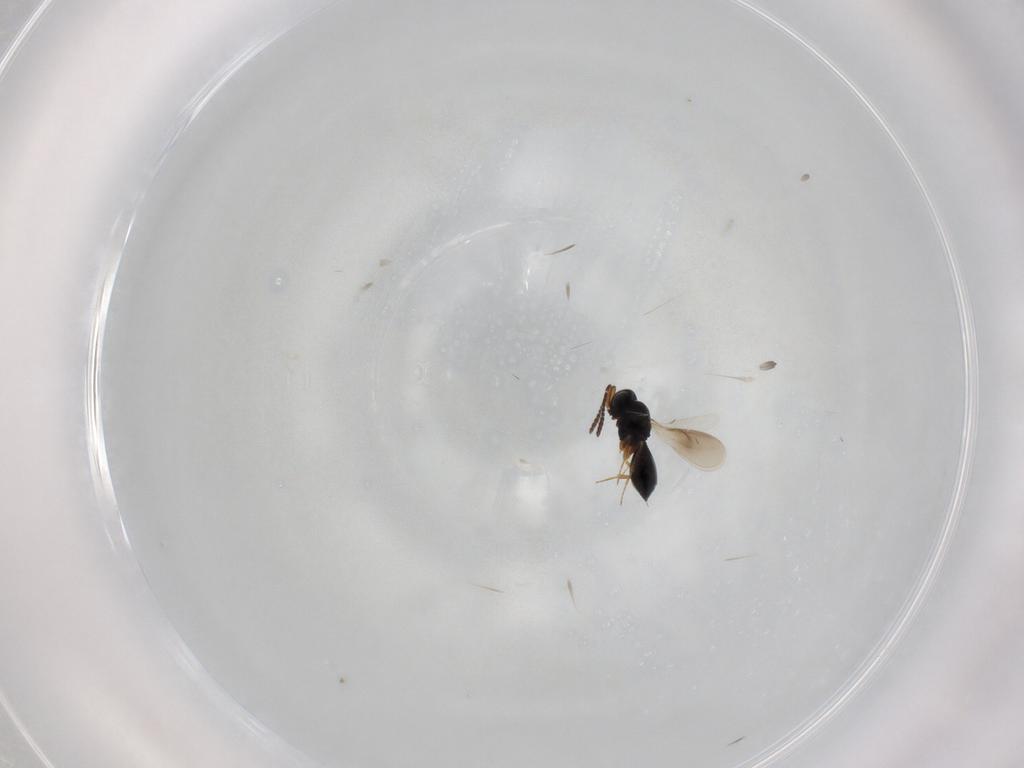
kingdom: Animalia
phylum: Arthropoda
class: Insecta
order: Hymenoptera
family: Scelionidae
